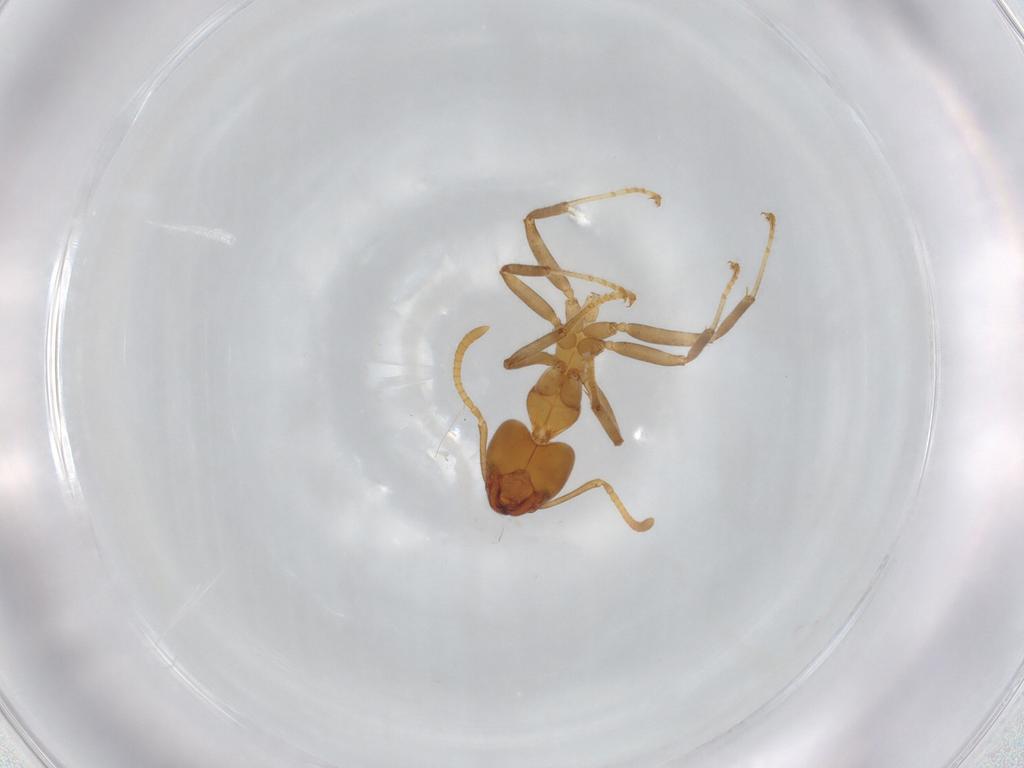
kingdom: Animalia
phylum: Arthropoda
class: Insecta
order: Hymenoptera
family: Formicidae
